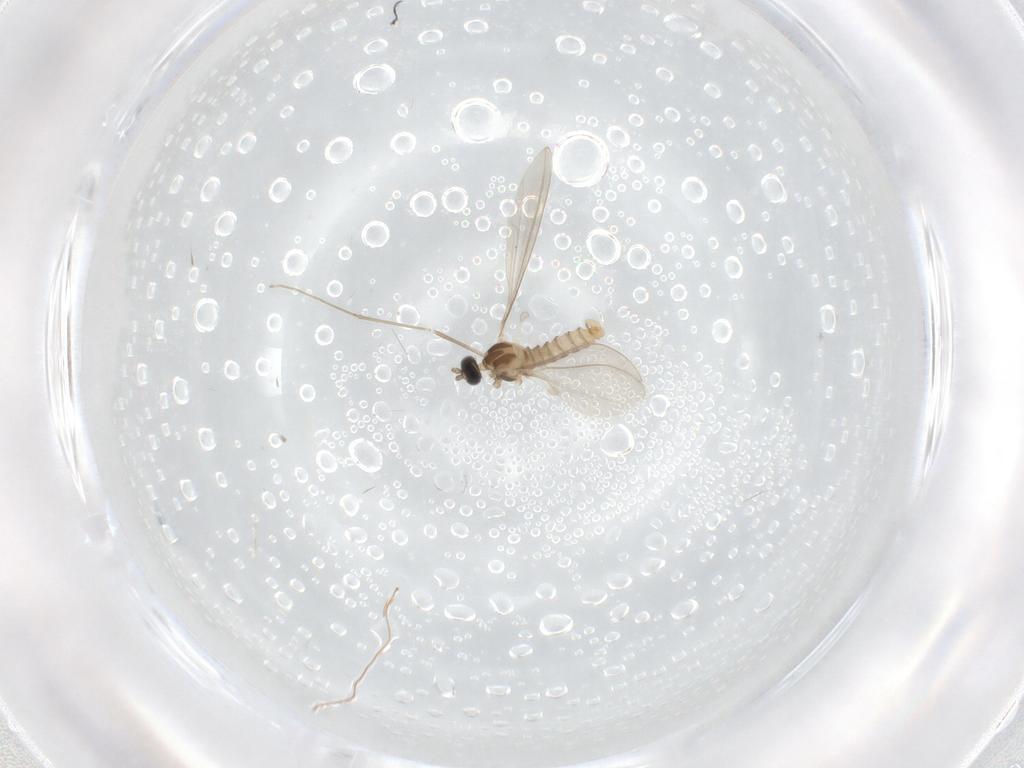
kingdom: Animalia
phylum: Arthropoda
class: Insecta
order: Diptera
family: Cecidomyiidae
